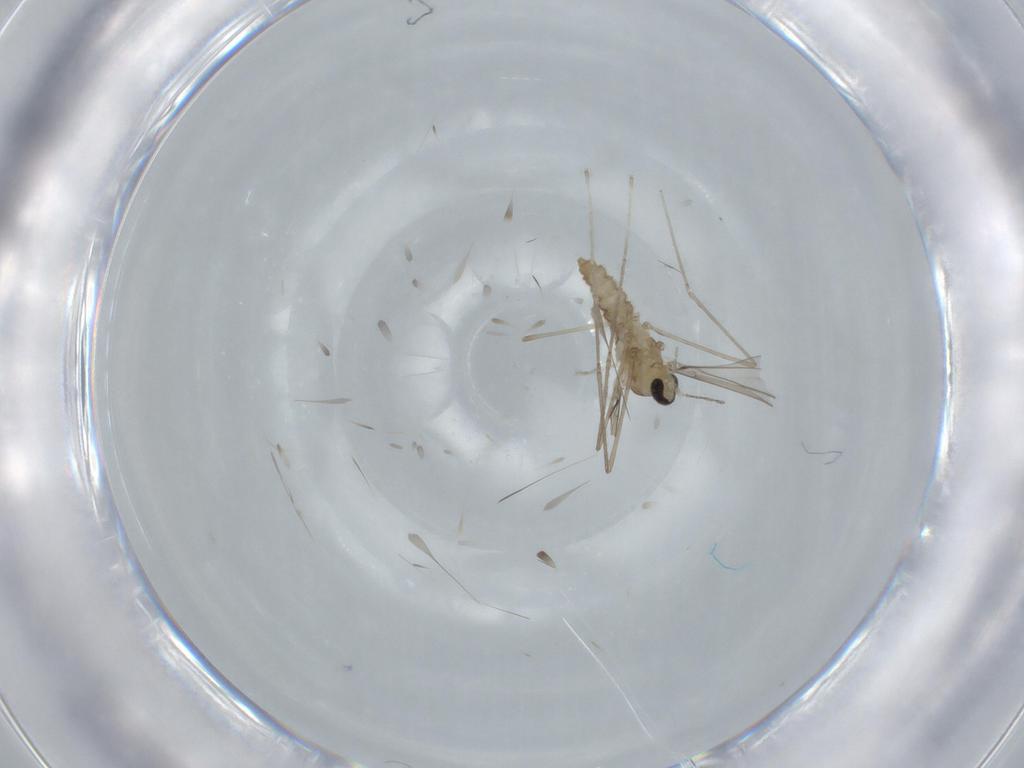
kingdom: Animalia
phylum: Arthropoda
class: Insecta
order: Diptera
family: Cecidomyiidae
